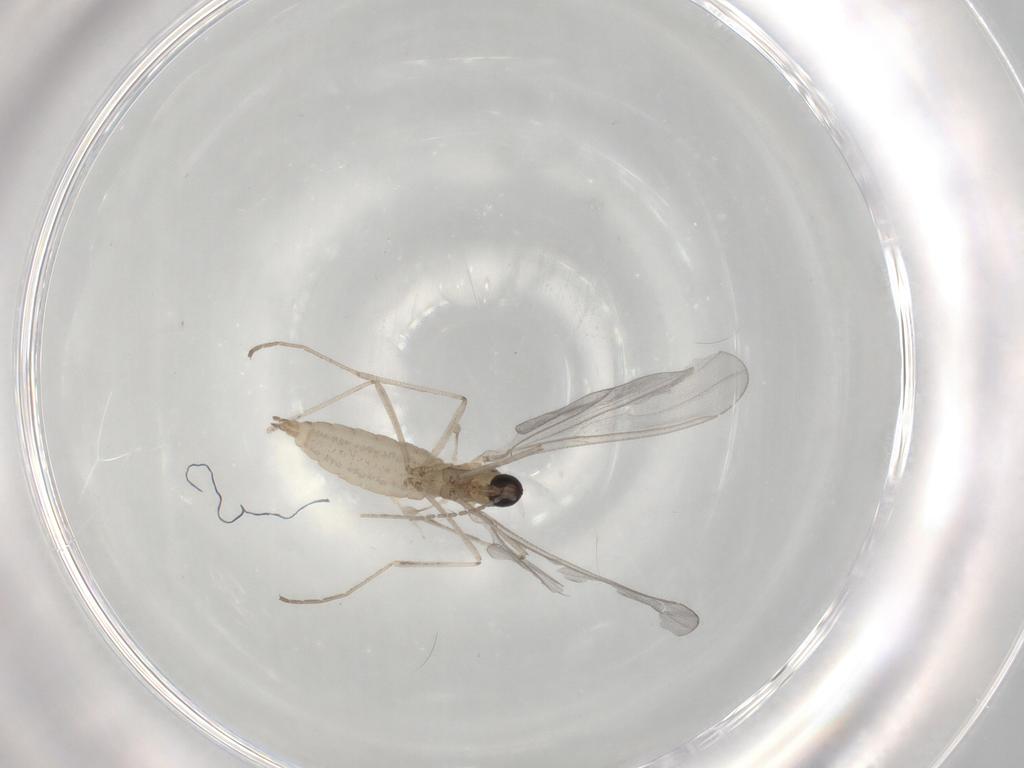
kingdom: Animalia
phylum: Arthropoda
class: Insecta
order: Diptera
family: Cecidomyiidae
